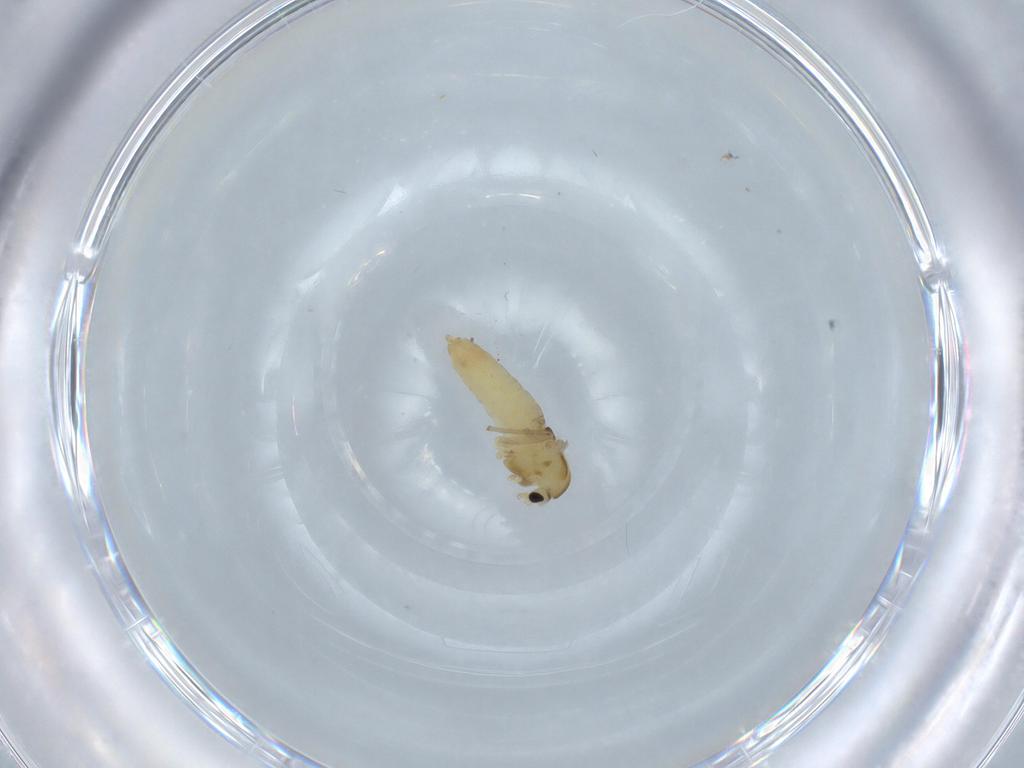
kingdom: Animalia
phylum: Arthropoda
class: Insecta
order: Diptera
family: Chironomidae
